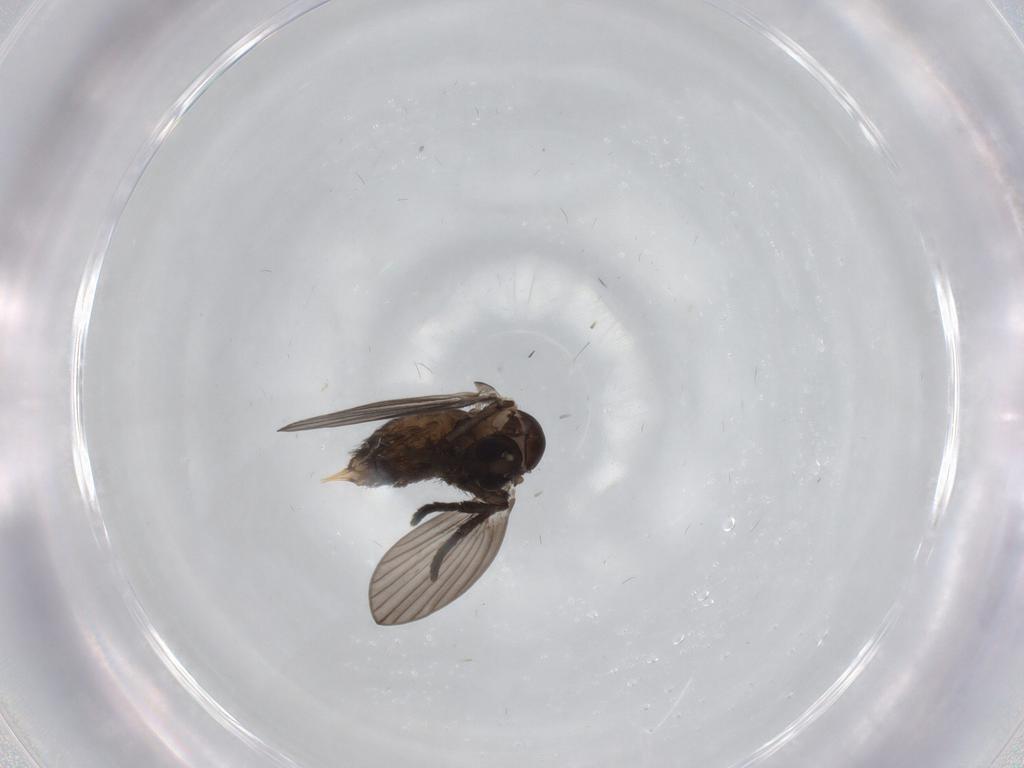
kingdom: Animalia
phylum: Arthropoda
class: Insecta
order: Diptera
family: Psychodidae
